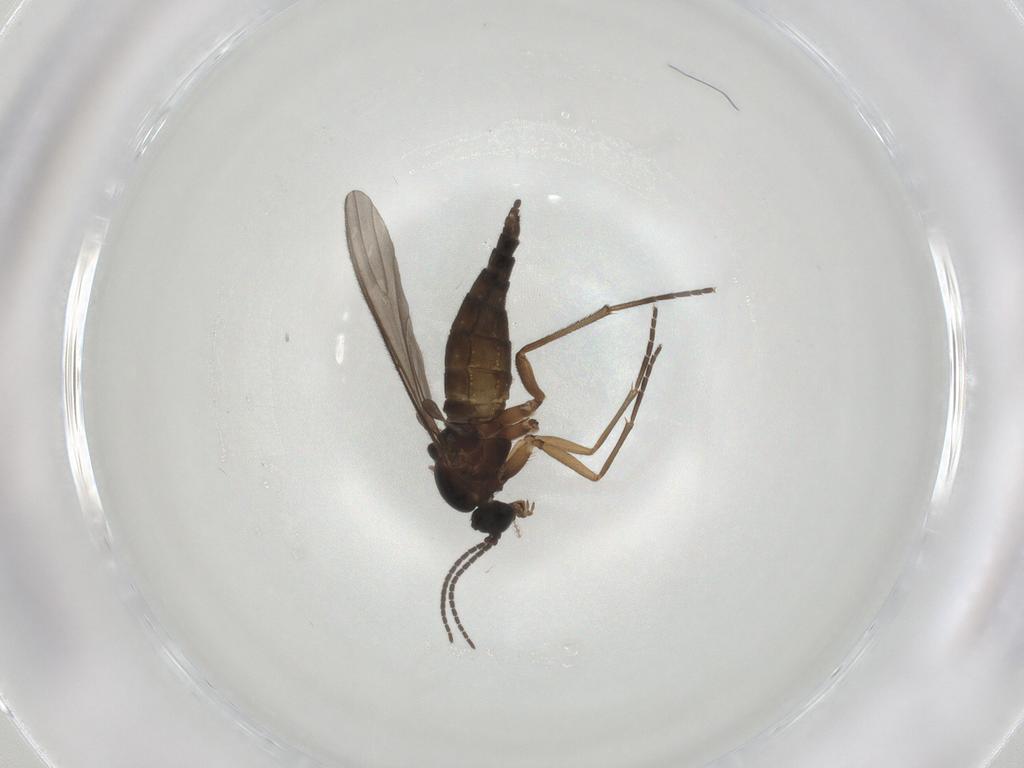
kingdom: Animalia
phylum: Arthropoda
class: Insecta
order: Diptera
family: Sciaridae
